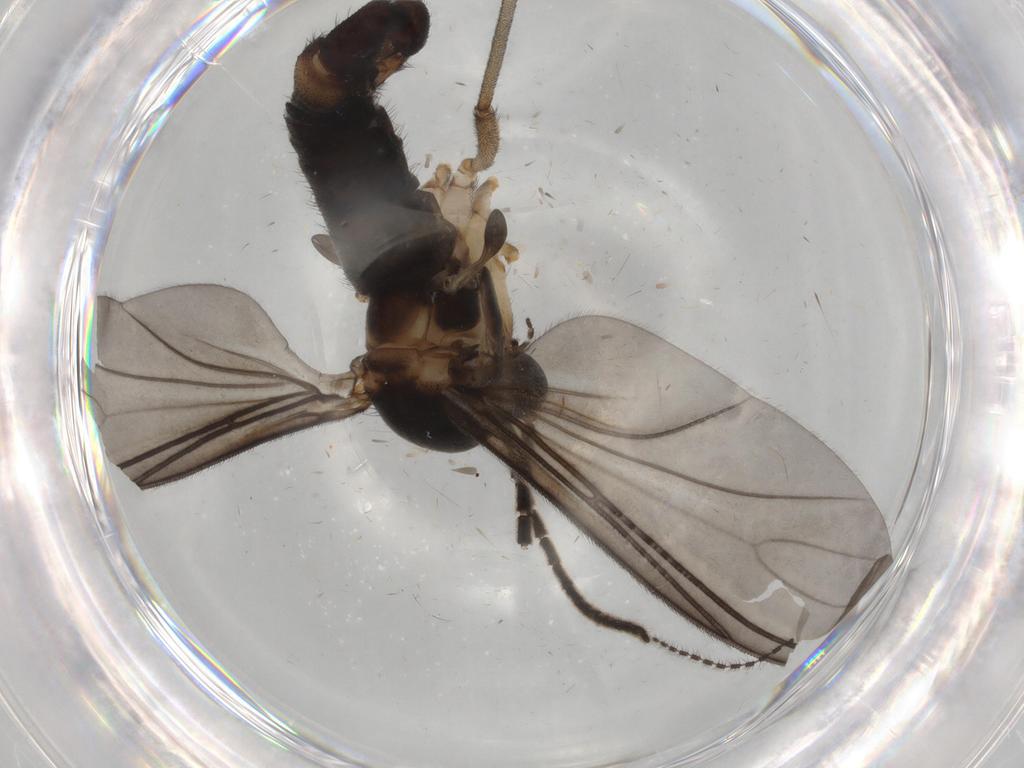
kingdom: Animalia
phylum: Arthropoda
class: Insecta
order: Diptera
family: Sciaridae
